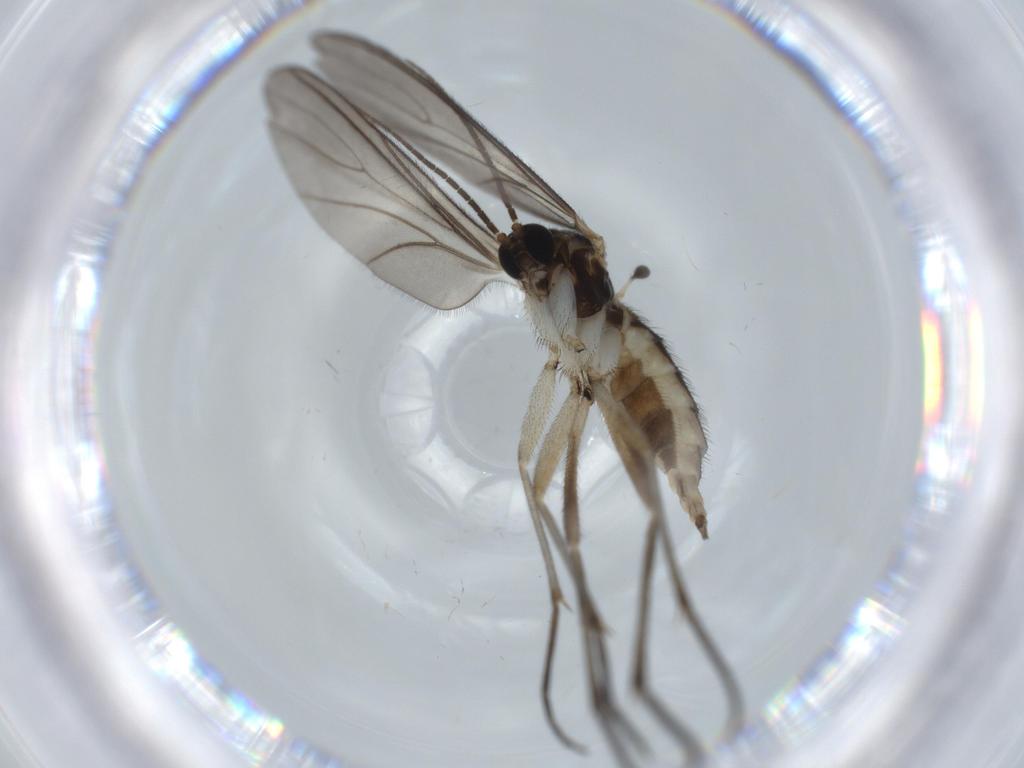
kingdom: Animalia
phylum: Arthropoda
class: Insecta
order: Diptera
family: Sciaridae
